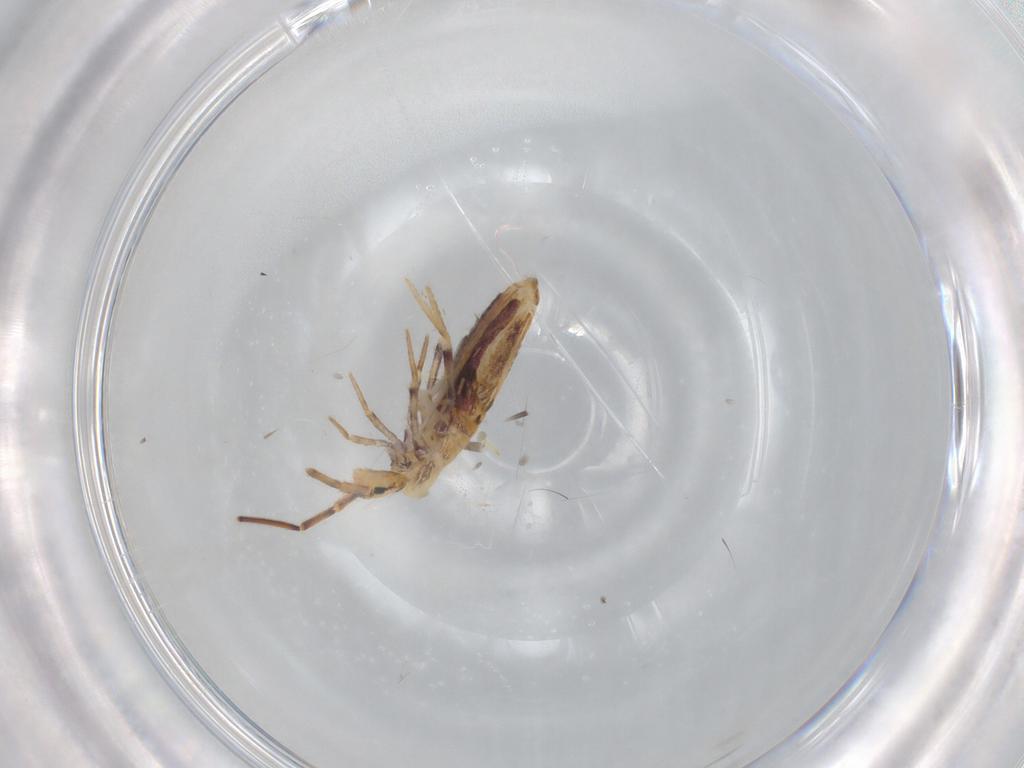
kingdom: Animalia
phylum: Arthropoda
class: Collembola
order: Poduromorpha
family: Hypogastruridae
